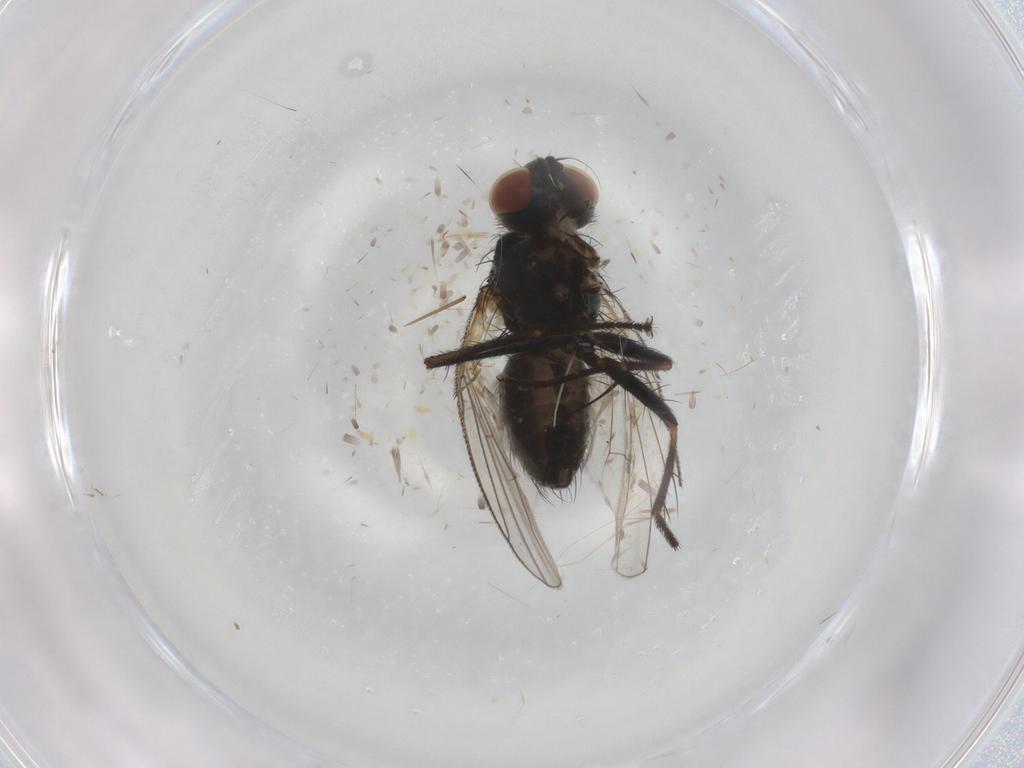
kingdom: Animalia
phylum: Arthropoda
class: Insecta
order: Diptera
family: Muscidae
